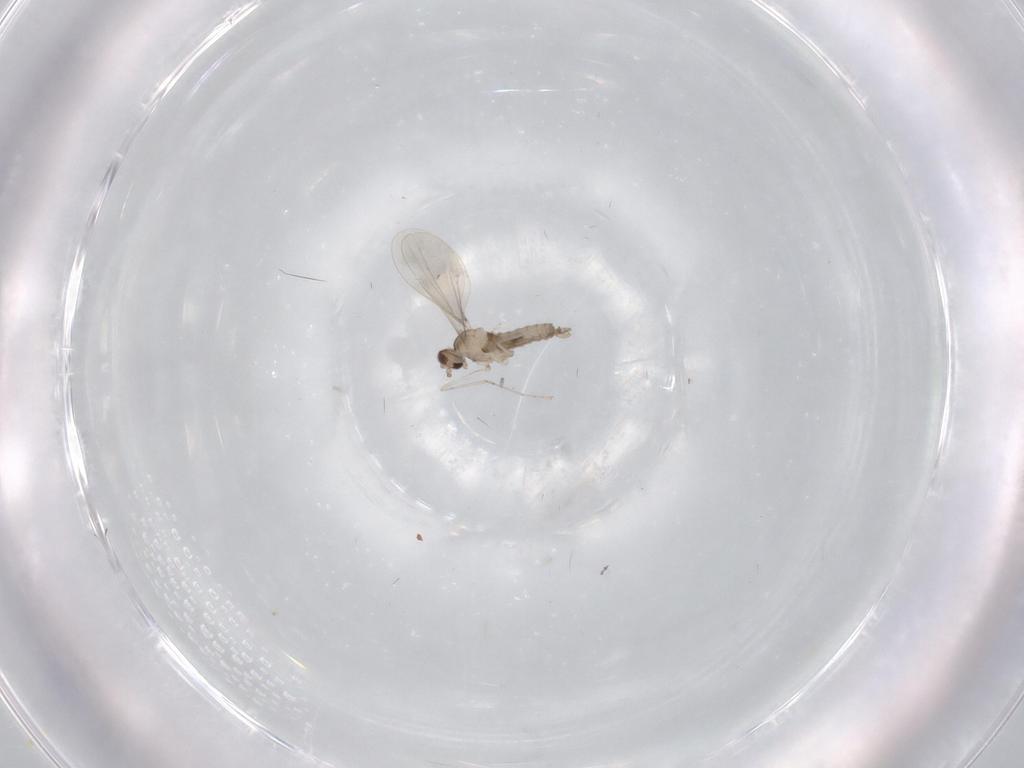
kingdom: Animalia
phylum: Arthropoda
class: Insecta
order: Diptera
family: Cecidomyiidae
